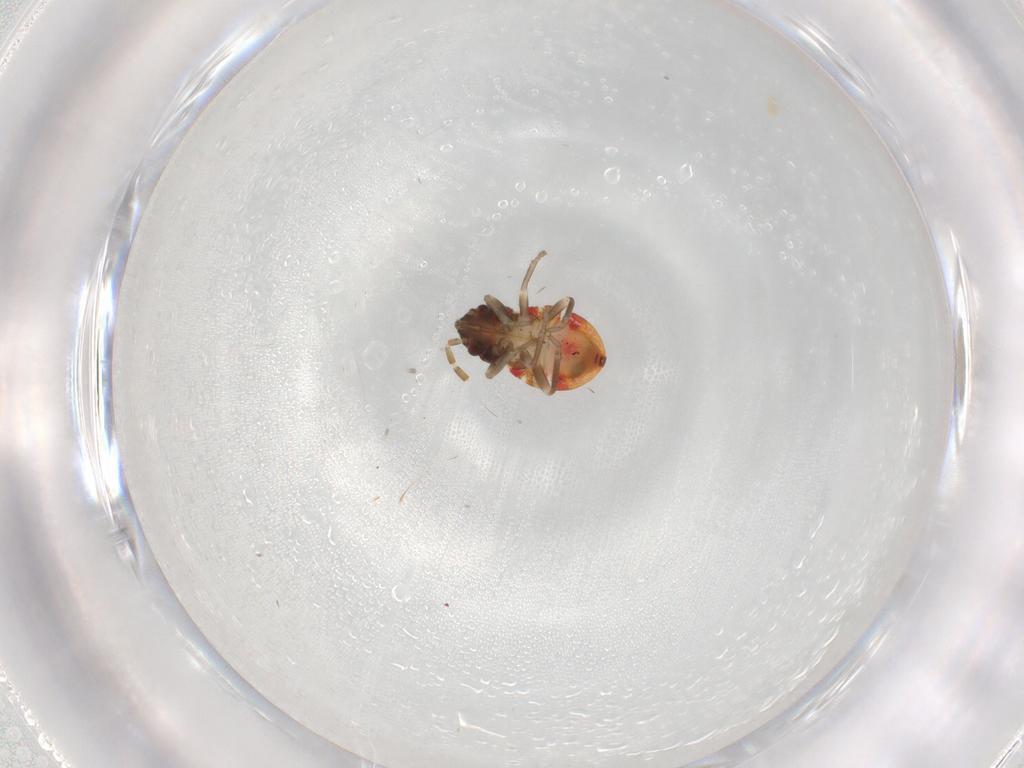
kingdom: Animalia
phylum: Arthropoda
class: Insecta
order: Hemiptera
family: Rhyparochromidae
